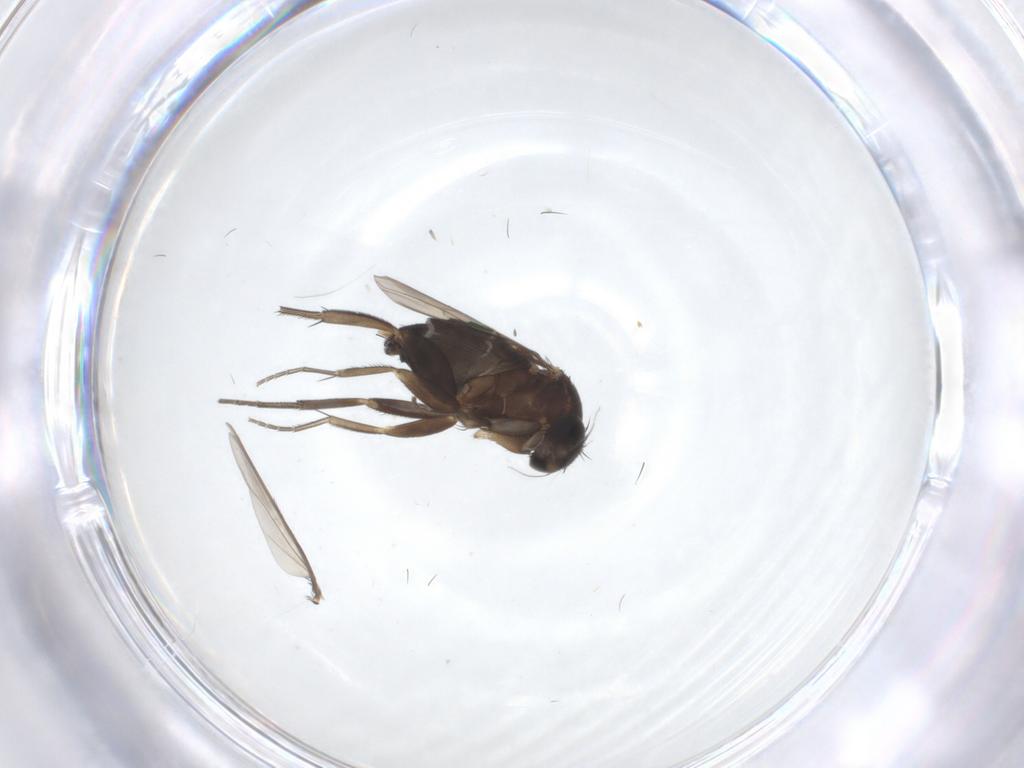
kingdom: Animalia
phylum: Arthropoda
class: Insecta
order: Diptera
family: Phoridae
